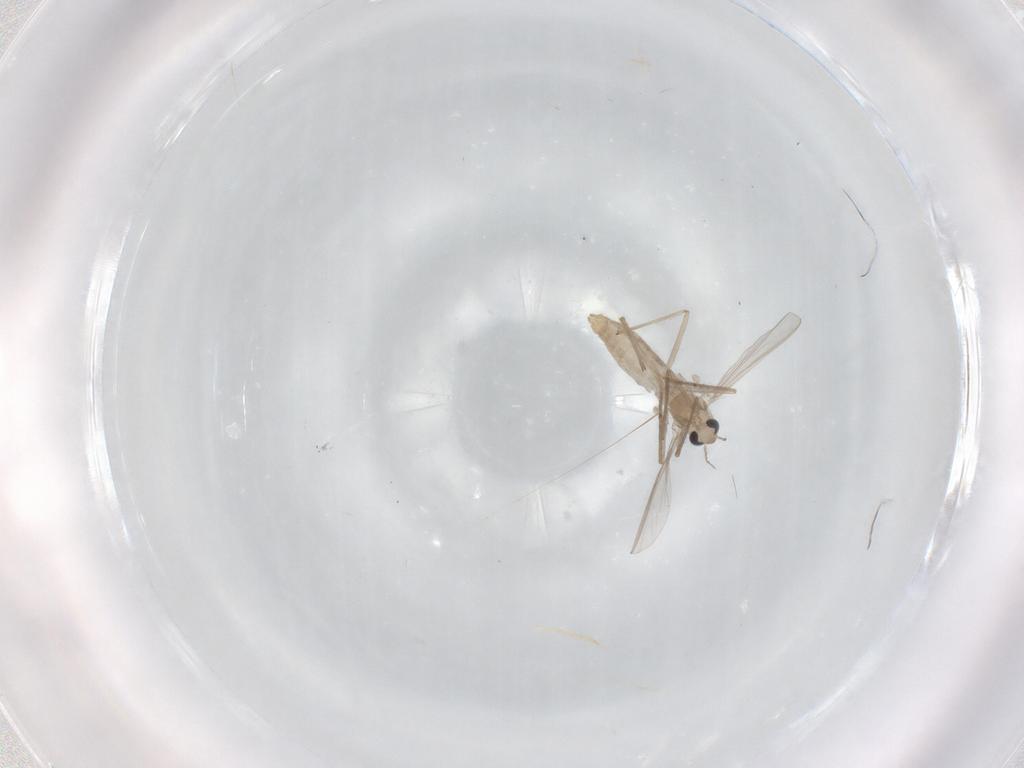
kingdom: Animalia
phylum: Arthropoda
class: Insecta
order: Diptera
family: Chironomidae
